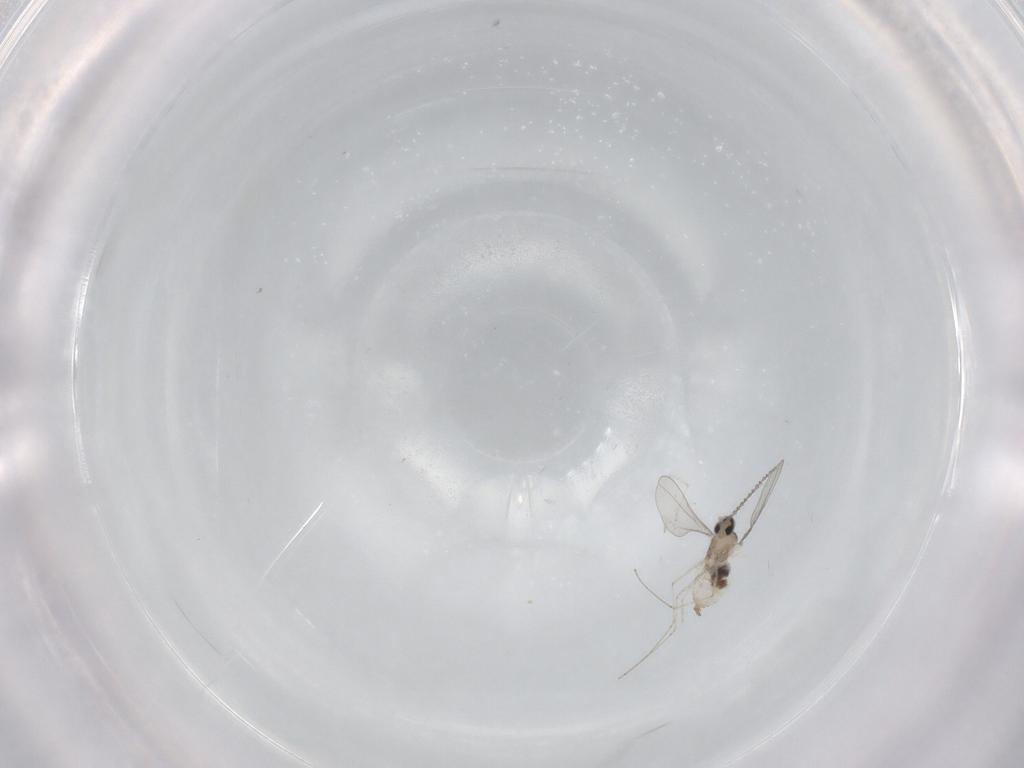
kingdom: Animalia
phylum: Arthropoda
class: Insecta
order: Diptera
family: Cecidomyiidae
